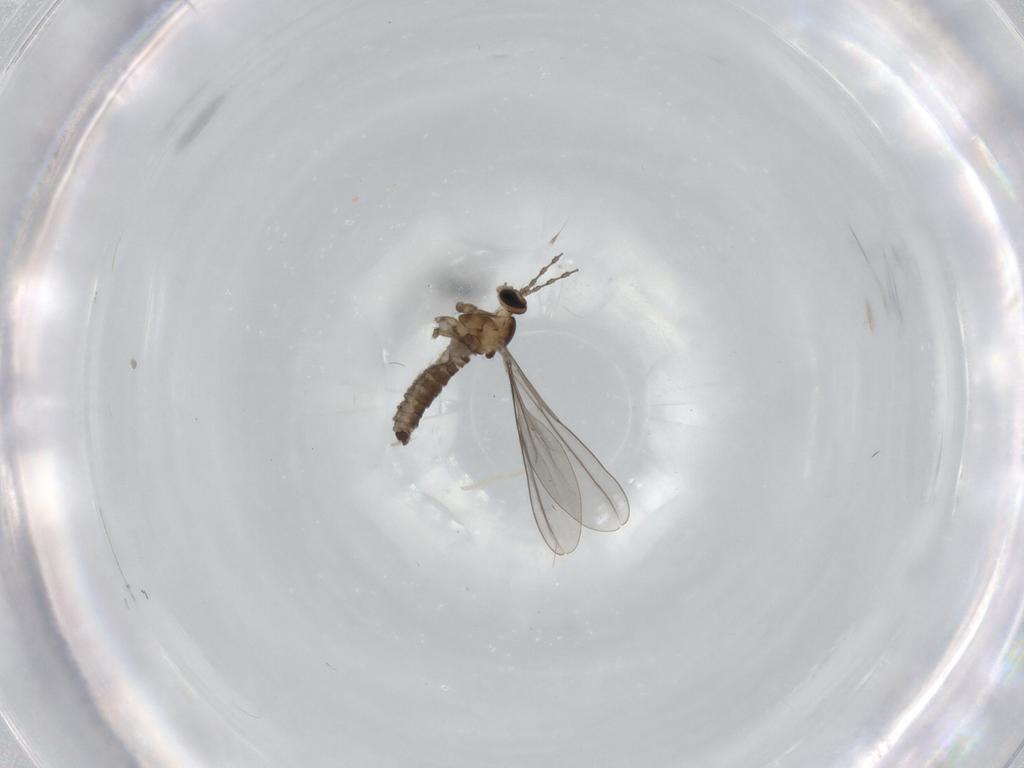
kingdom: Animalia
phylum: Arthropoda
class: Insecta
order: Diptera
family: Cecidomyiidae
